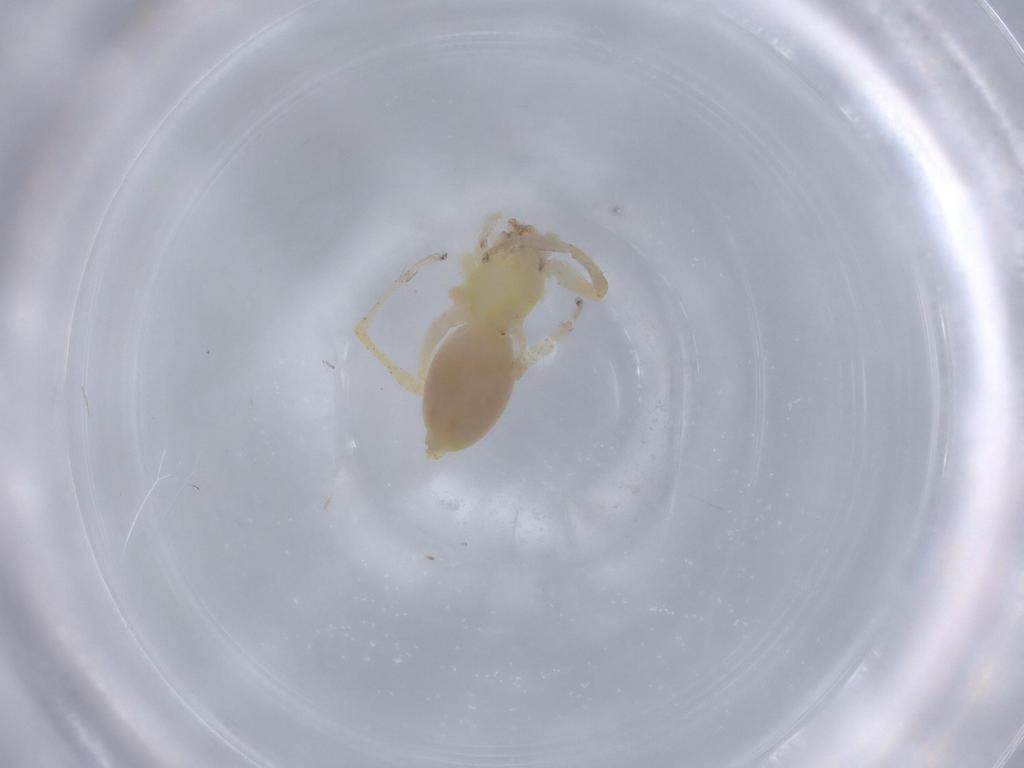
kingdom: Animalia
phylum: Arthropoda
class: Arachnida
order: Araneae
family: Anyphaenidae
